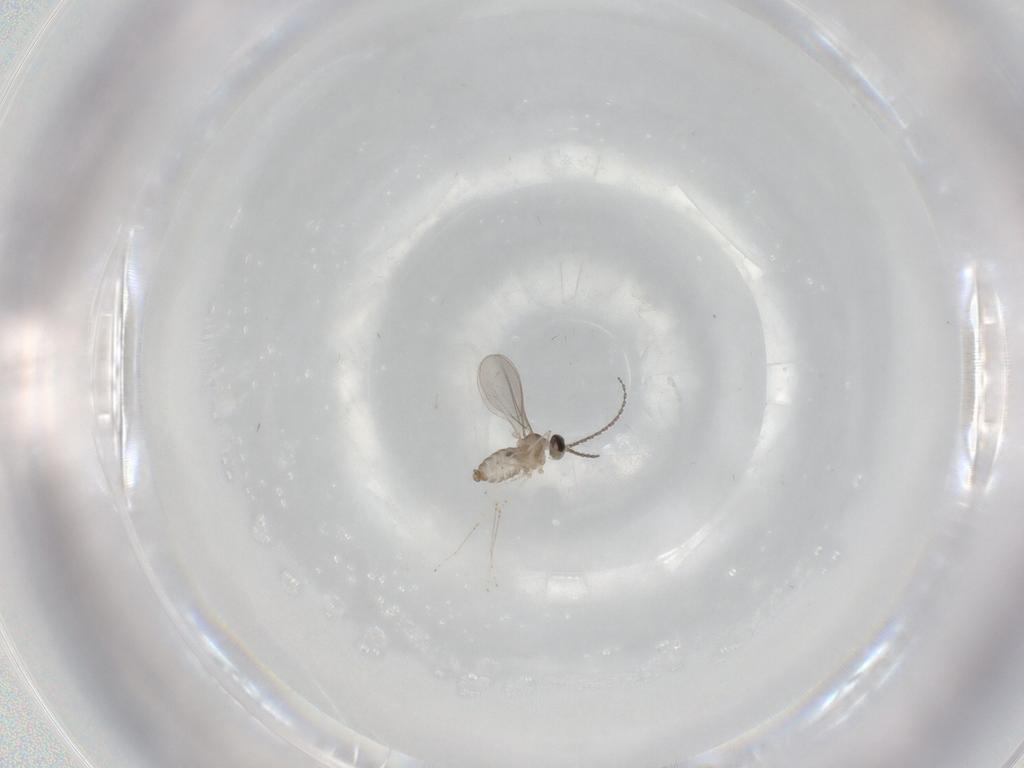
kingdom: Animalia
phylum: Arthropoda
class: Insecta
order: Diptera
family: Cecidomyiidae
